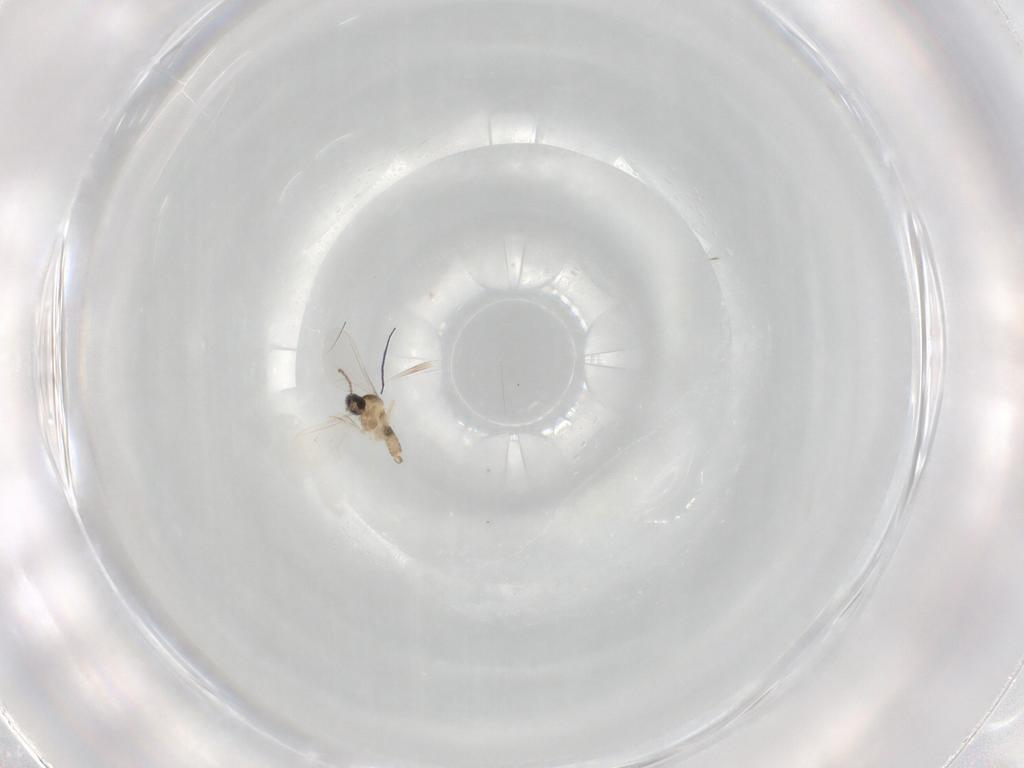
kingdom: Animalia
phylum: Arthropoda
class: Insecta
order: Diptera
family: Cecidomyiidae
